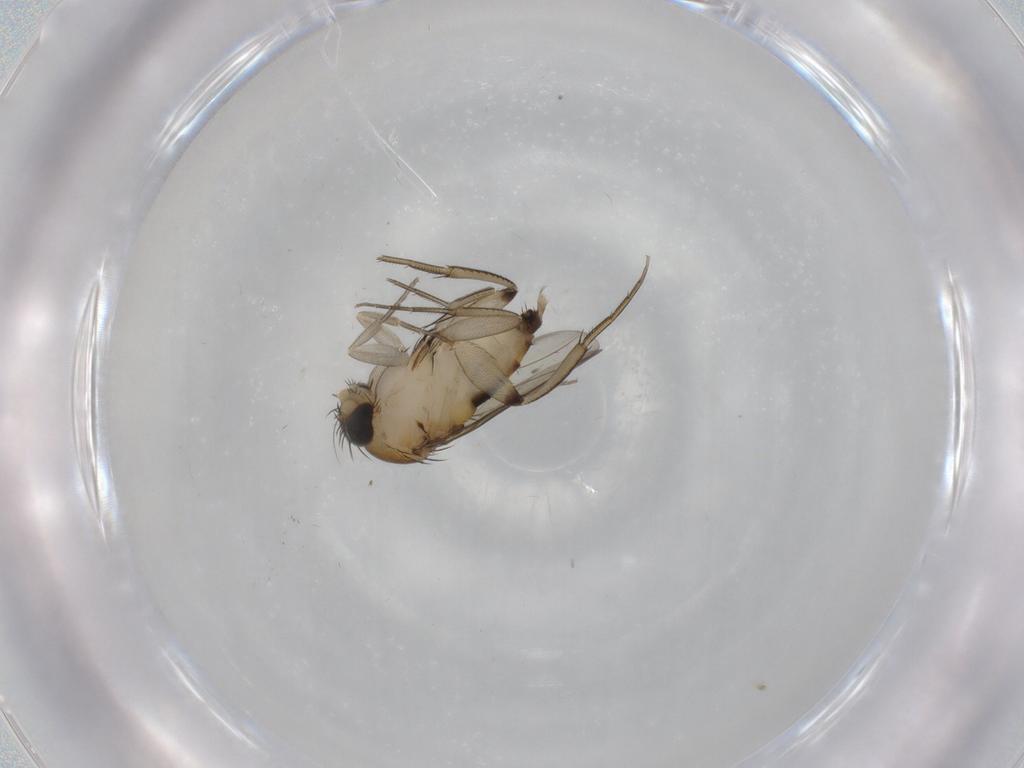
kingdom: Animalia
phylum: Arthropoda
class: Insecta
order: Diptera
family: Phoridae
